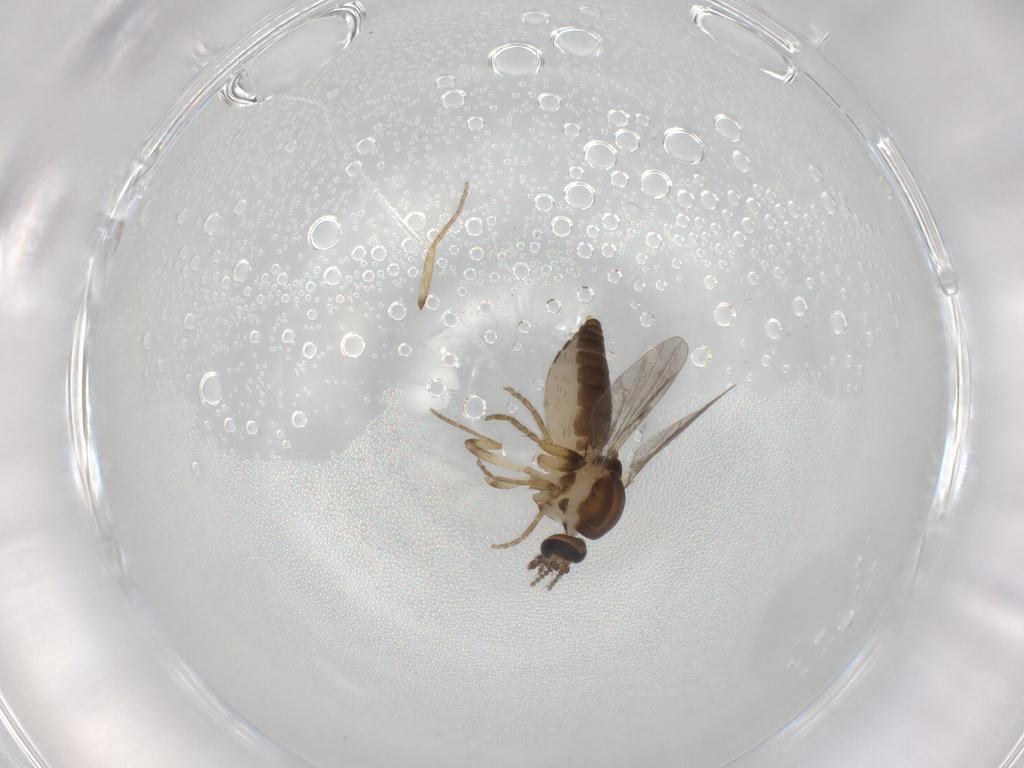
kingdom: Animalia
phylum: Arthropoda
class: Insecta
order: Diptera
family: Ceratopogonidae
